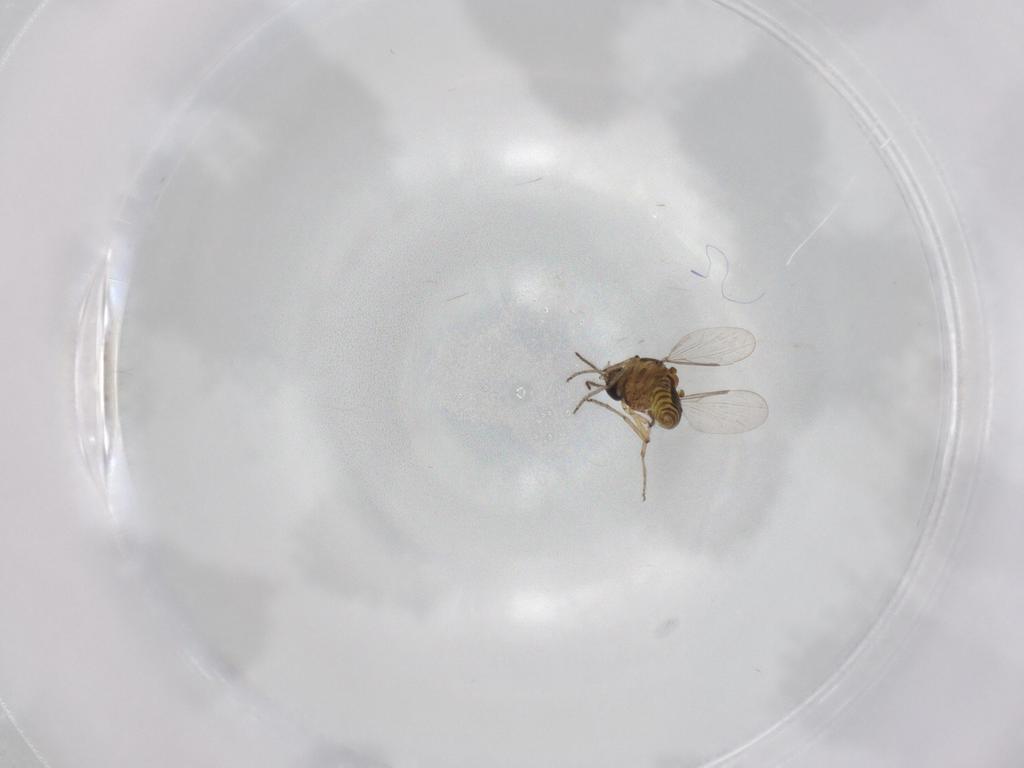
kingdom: Animalia
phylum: Arthropoda
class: Insecta
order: Diptera
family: Ceratopogonidae
